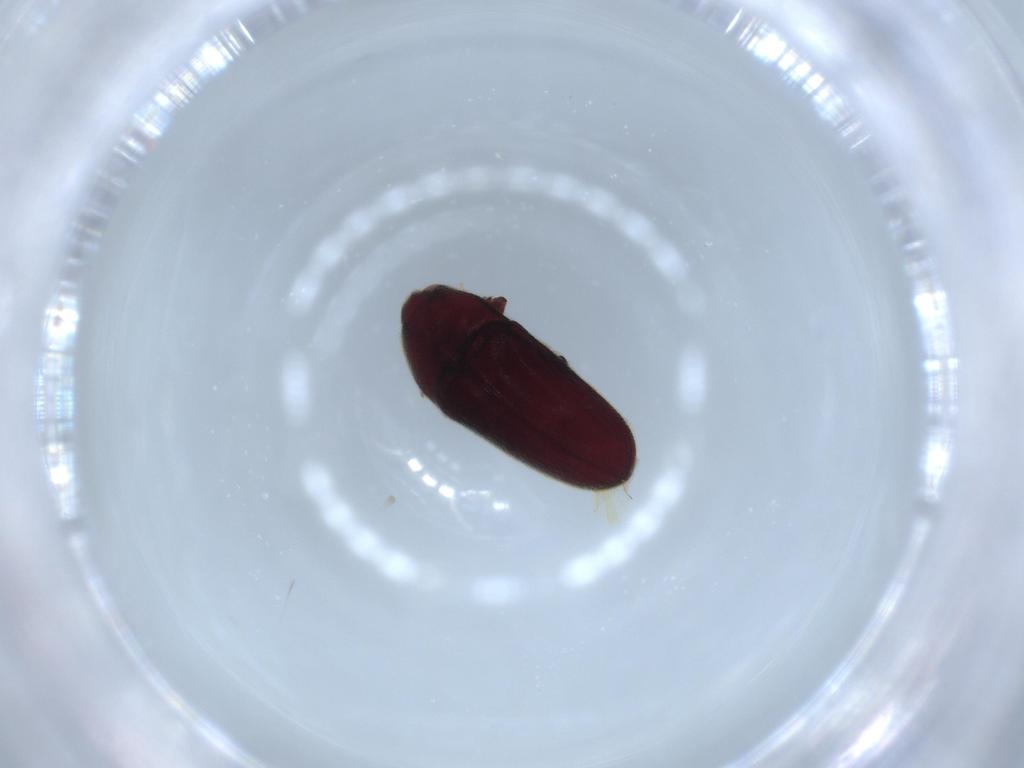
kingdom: Animalia
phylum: Arthropoda
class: Insecta
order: Coleoptera
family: Throscidae
